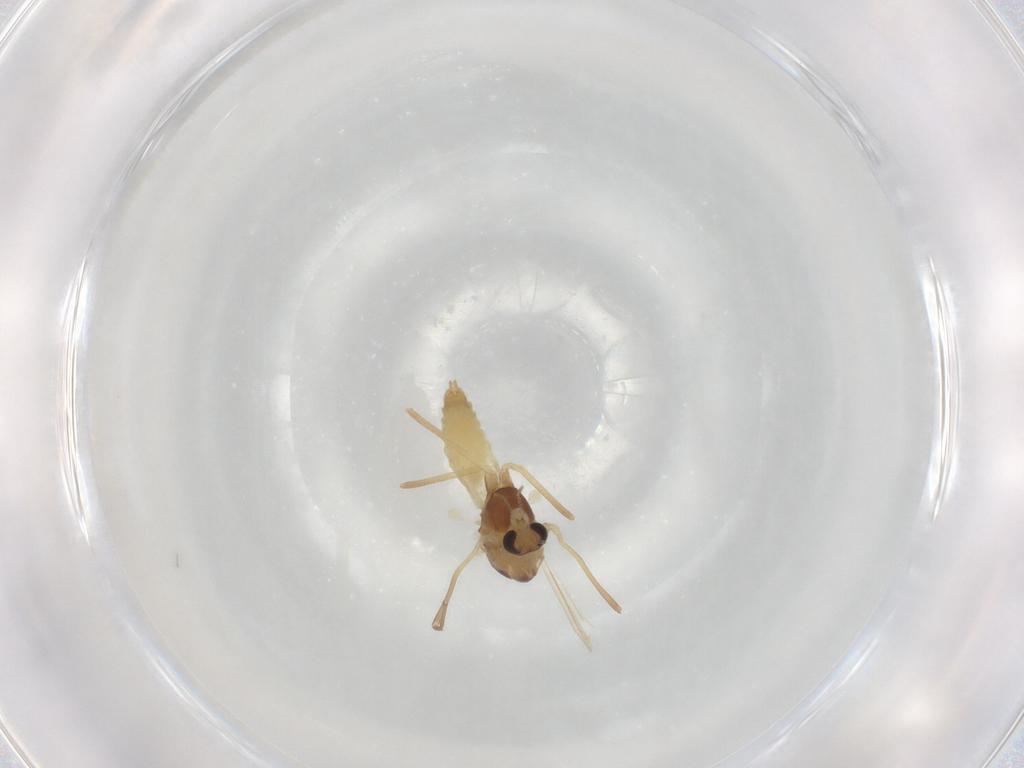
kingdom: Animalia
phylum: Arthropoda
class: Insecta
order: Diptera
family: Chironomidae
